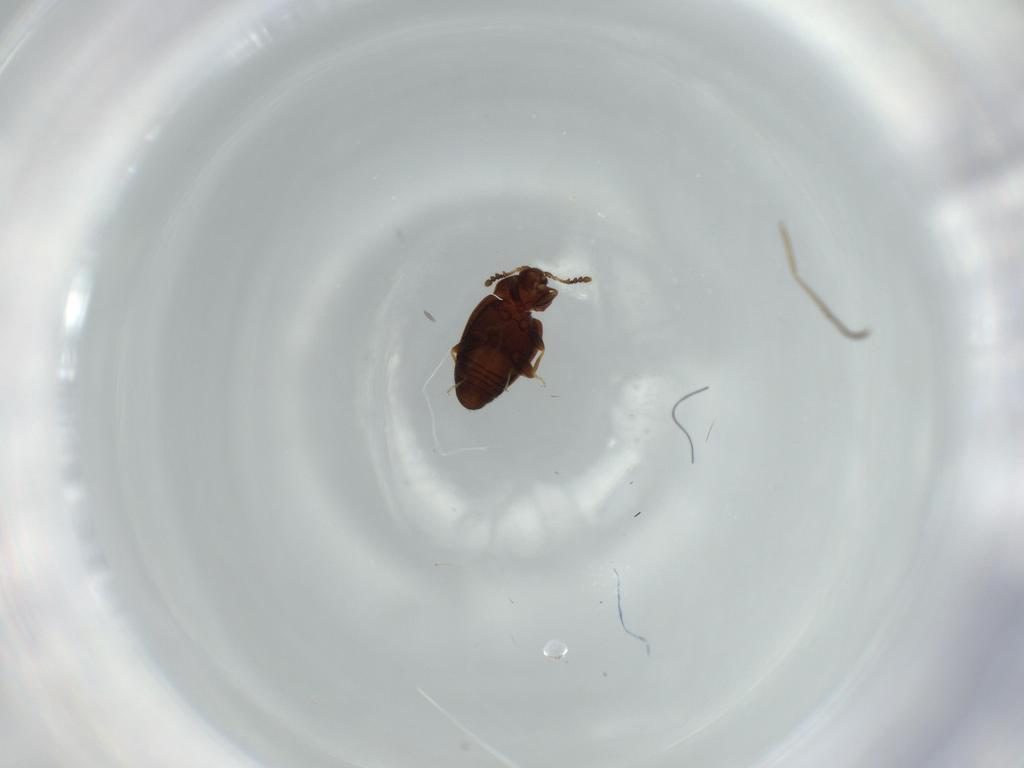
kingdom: Animalia
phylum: Arthropoda
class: Insecta
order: Coleoptera
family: Corylophidae
